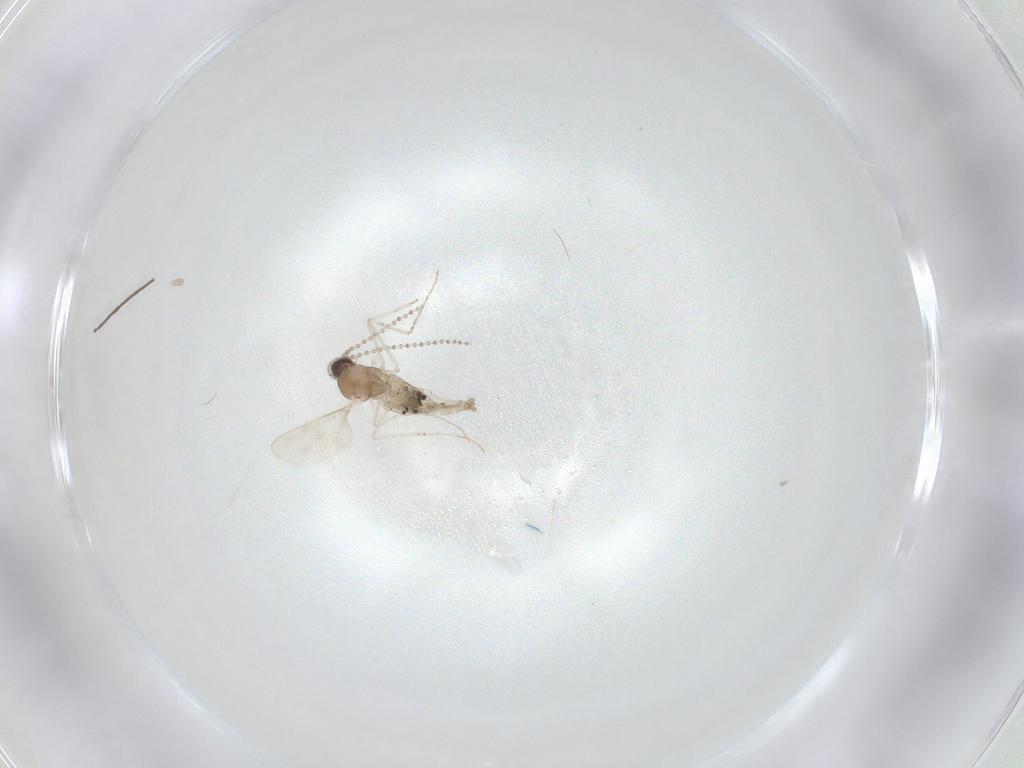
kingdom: Animalia
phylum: Arthropoda
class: Insecta
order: Diptera
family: Cecidomyiidae
